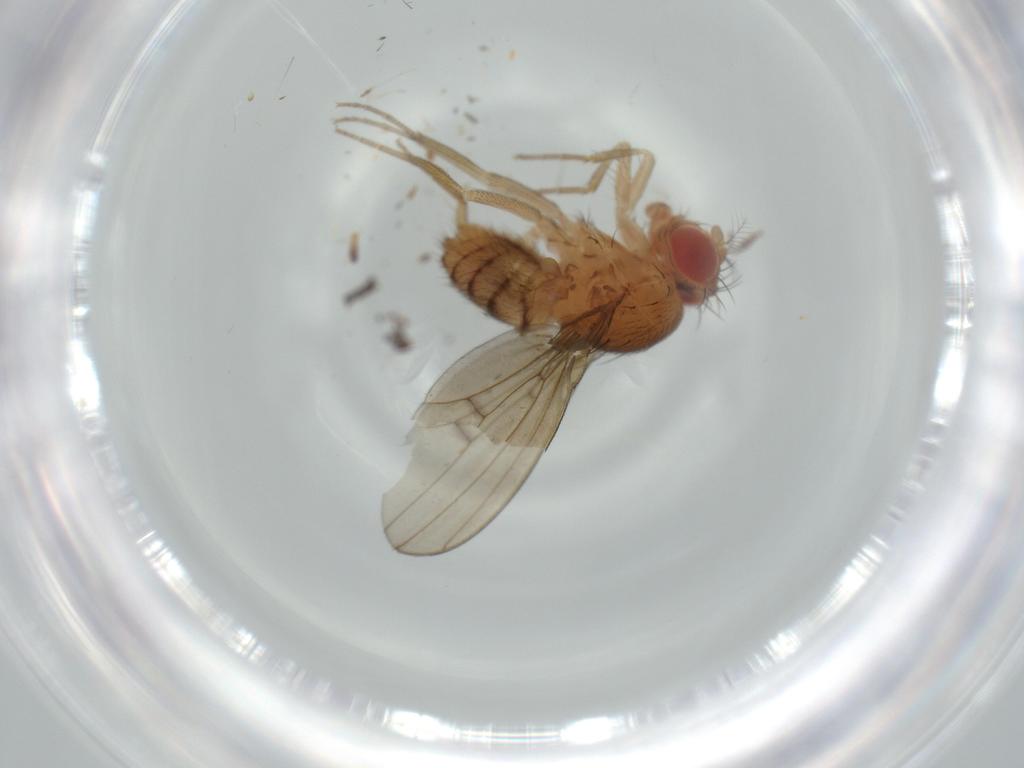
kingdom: Animalia
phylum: Arthropoda
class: Insecta
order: Diptera
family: Drosophilidae
